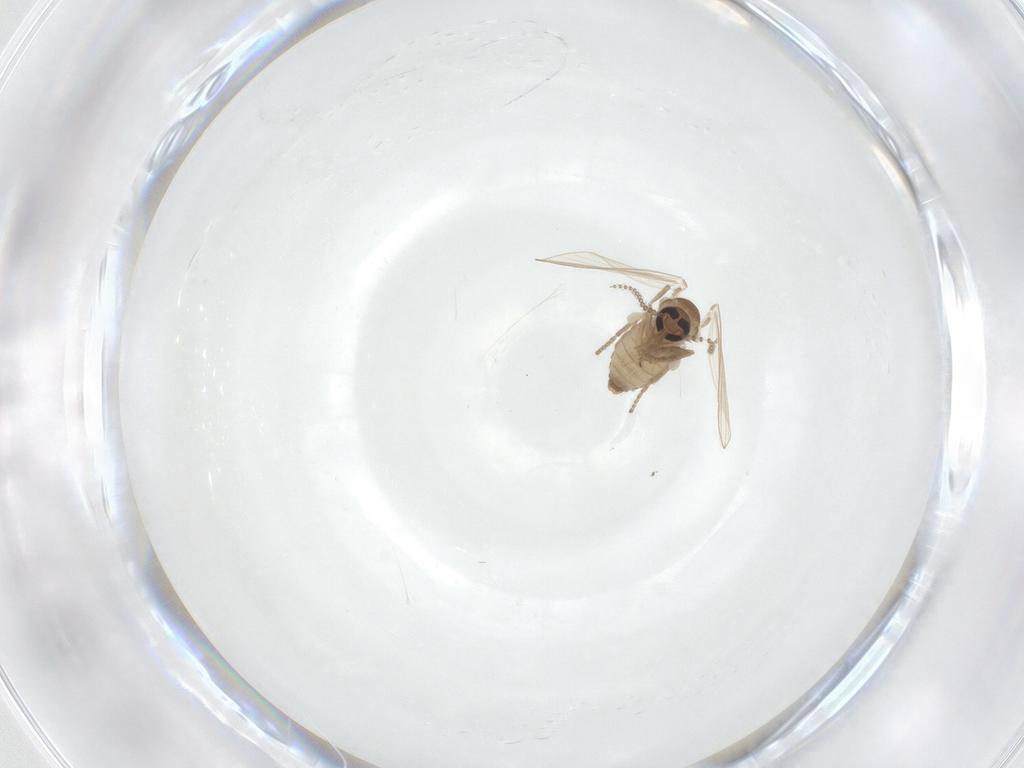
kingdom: Animalia
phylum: Arthropoda
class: Insecta
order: Diptera
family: Psychodidae
